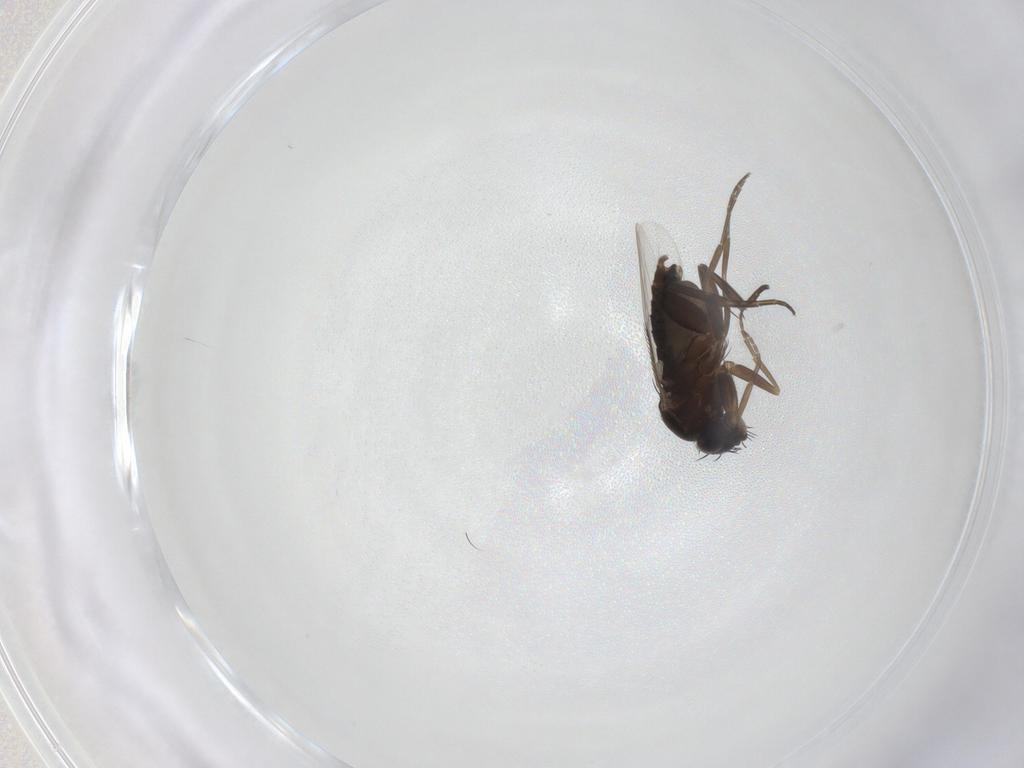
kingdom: Animalia
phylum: Arthropoda
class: Insecta
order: Diptera
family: Phoridae
